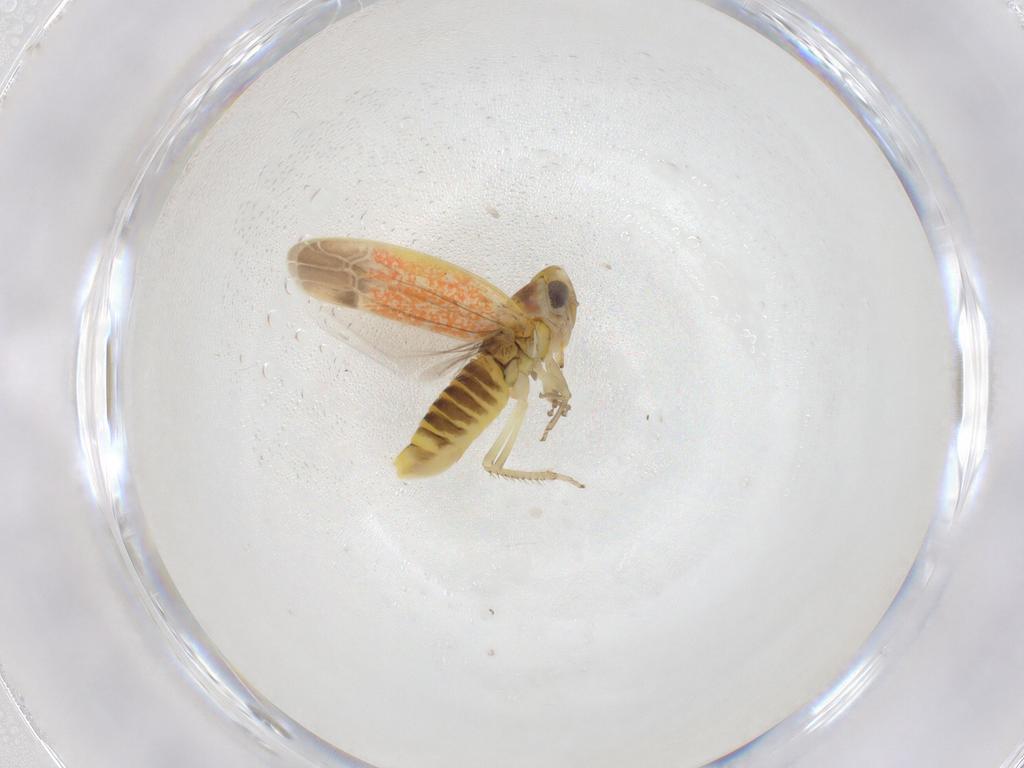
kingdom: Animalia
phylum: Arthropoda
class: Insecta
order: Hemiptera
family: Cicadellidae
